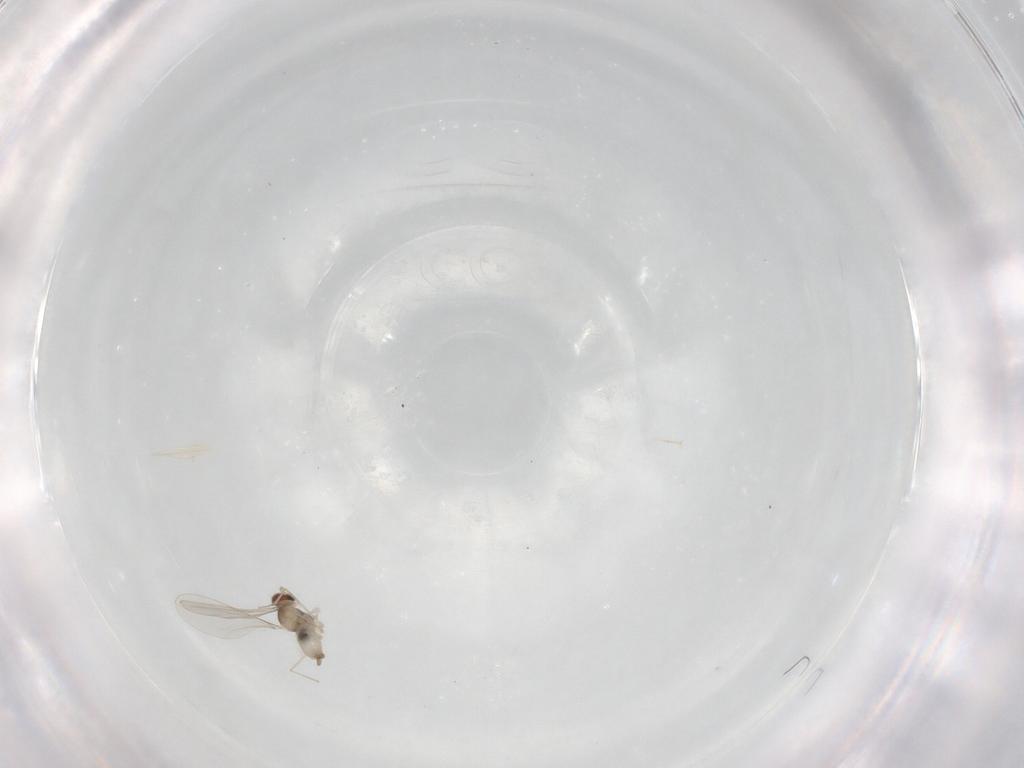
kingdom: Animalia
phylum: Arthropoda
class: Insecta
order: Diptera
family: Cecidomyiidae
